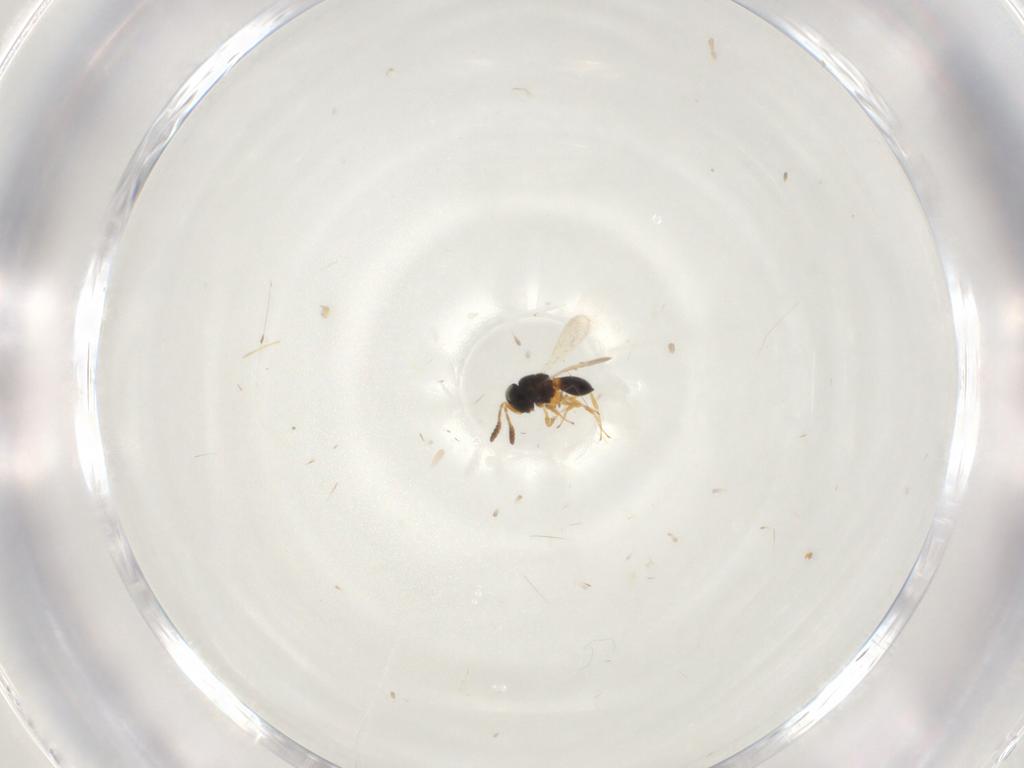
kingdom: Animalia
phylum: Arthropoda
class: Insecta
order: Hymenoptera
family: Scelionidae
